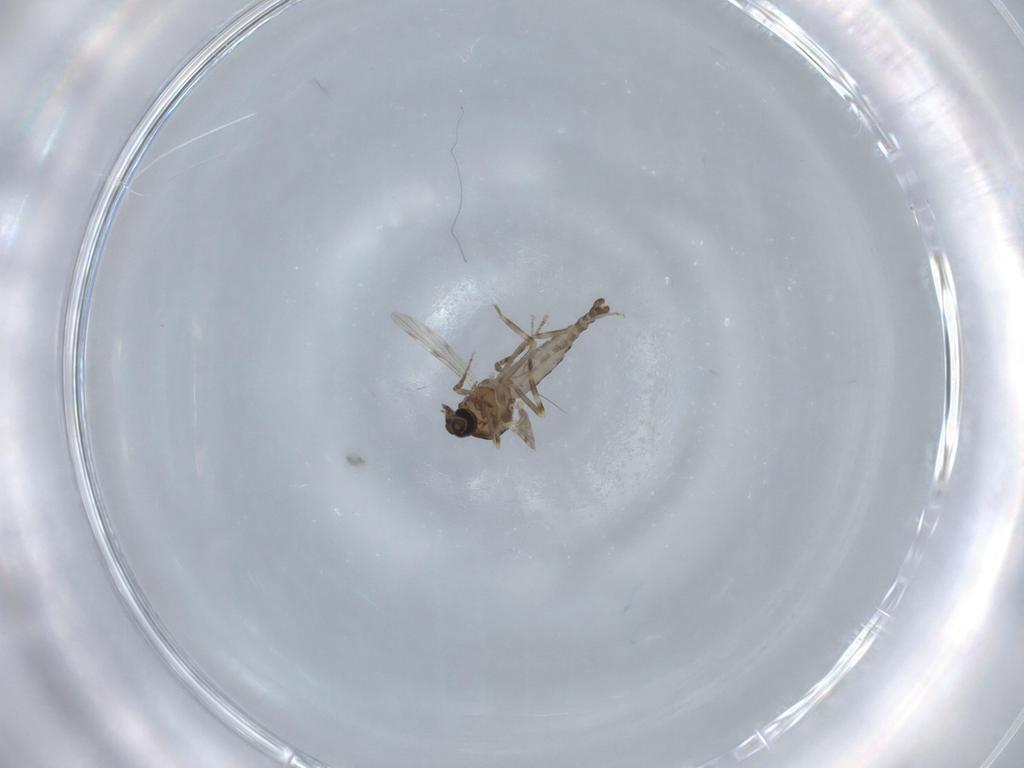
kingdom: Animalia
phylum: Arthropoda
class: Insecta
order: Diptera
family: Ceratopogonidae
